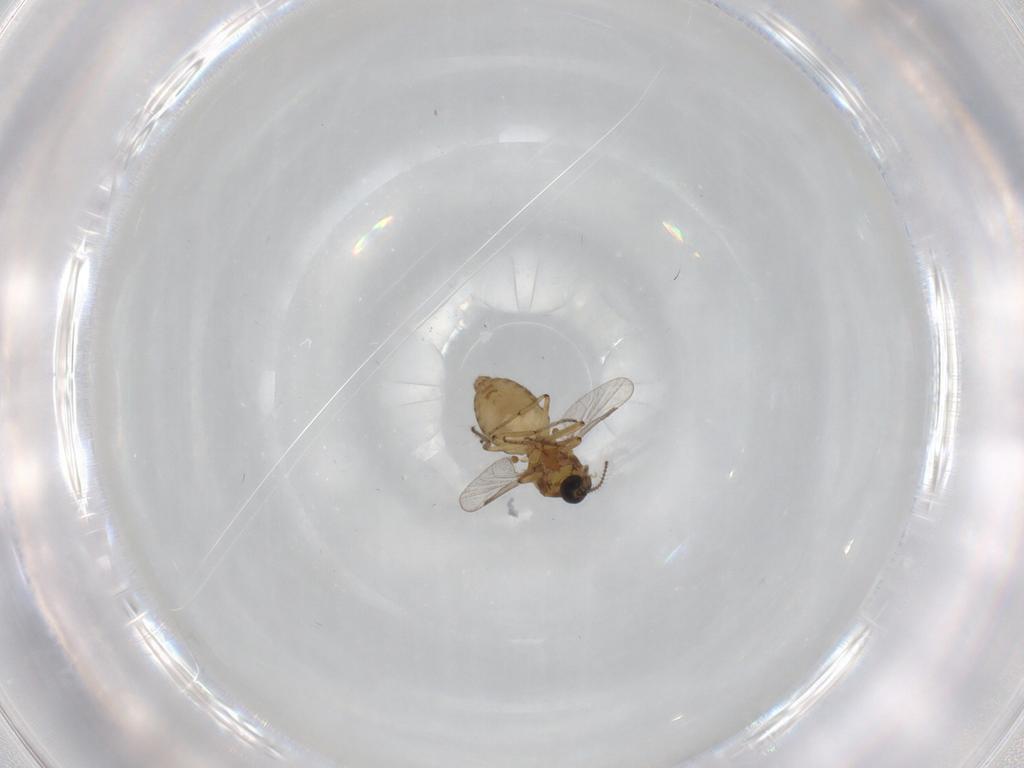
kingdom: Animalia
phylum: Arthropoda
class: Insecta
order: Diptera
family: Ceratopogonidae
